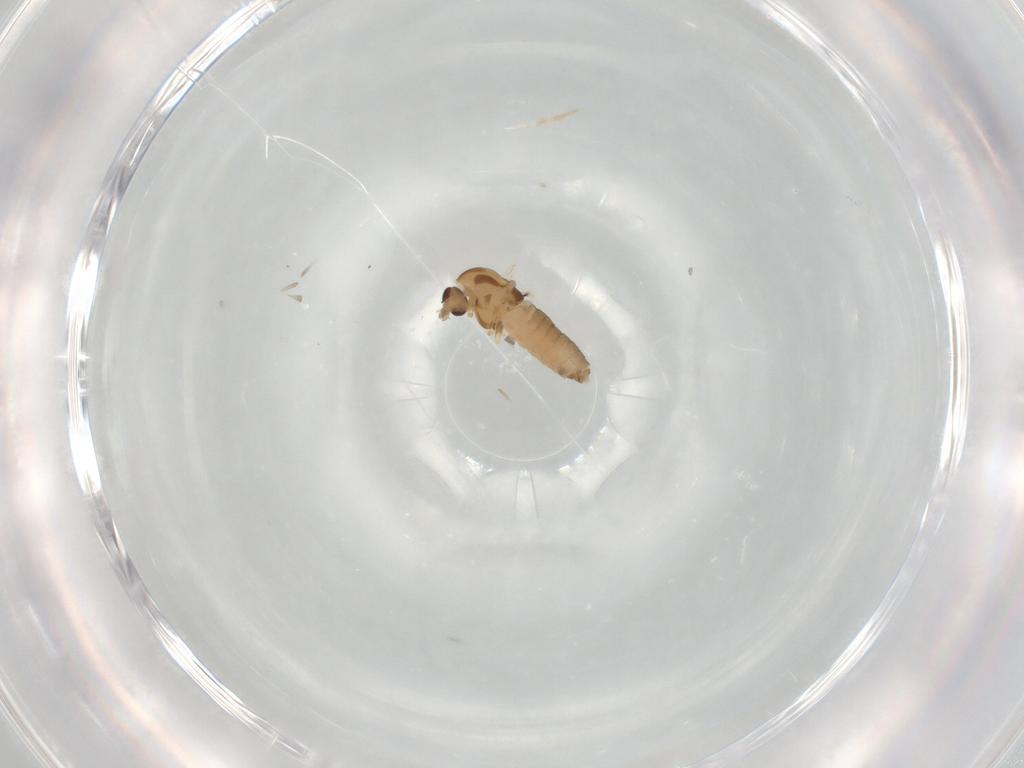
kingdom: Animalia
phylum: Arthropoda
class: Insecta
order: Diptera
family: Chironomidae
